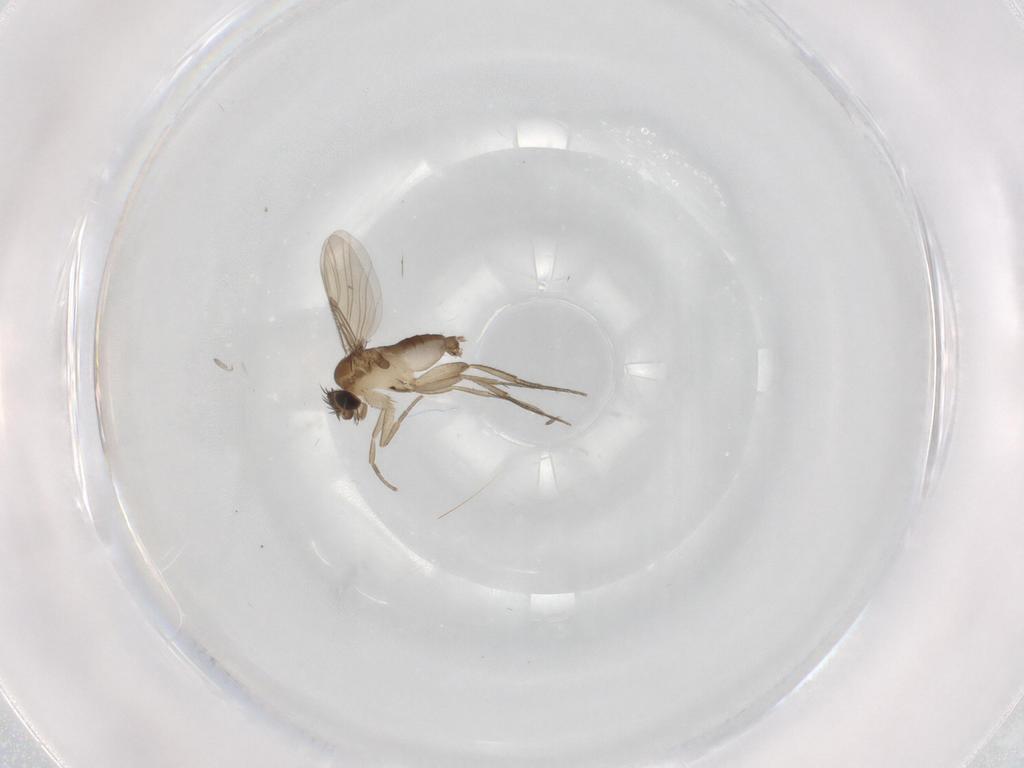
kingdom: Animalia
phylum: Arthropoda
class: Insecta
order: Diptera
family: Phoridae
